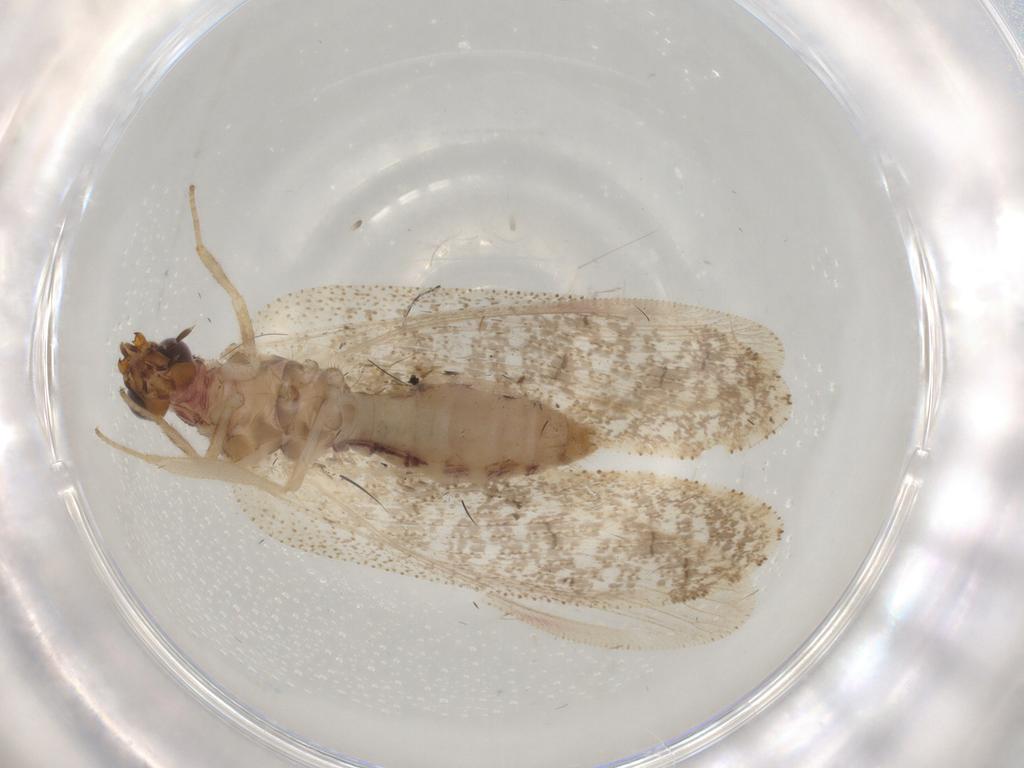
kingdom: Animalia
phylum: Arthropoda
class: Insecta
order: Neuroptera
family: Hemerobiidae
